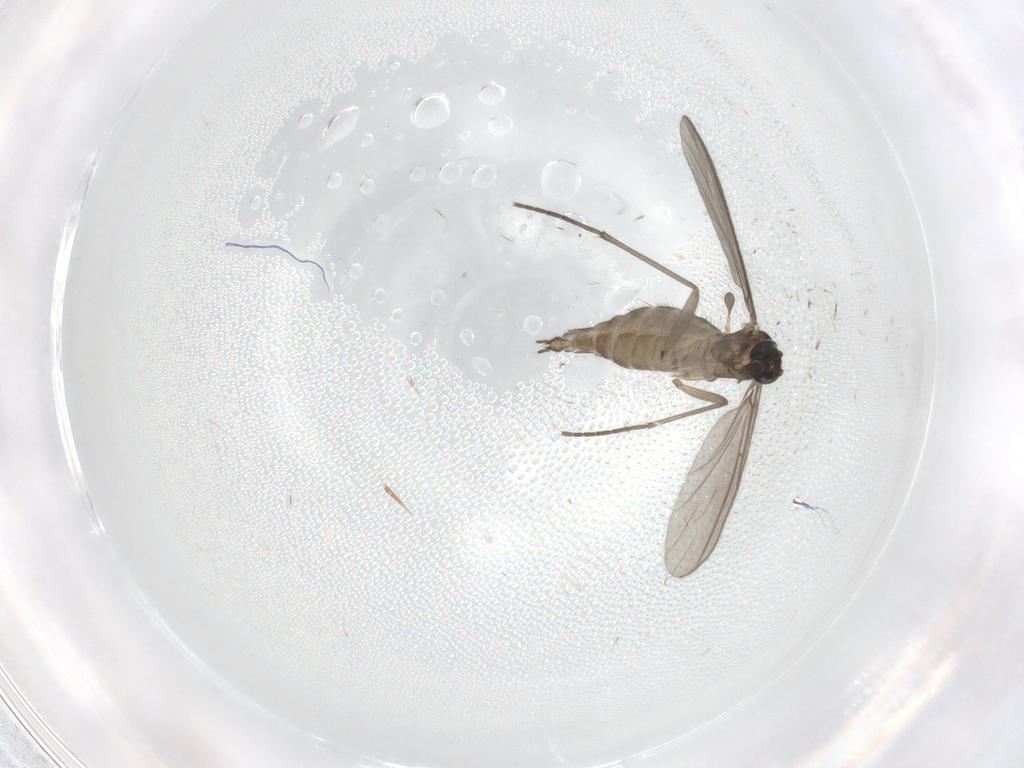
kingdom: Animalia
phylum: Arthropoda
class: Insecta
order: Diptera
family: Sciaridae
